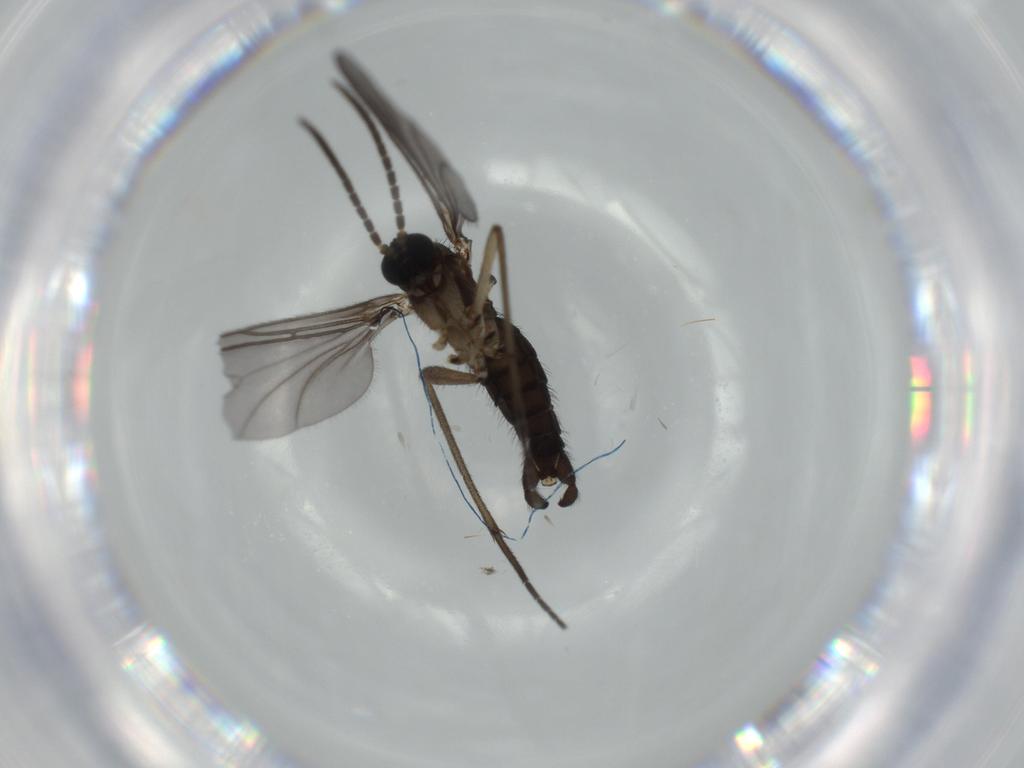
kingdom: Animalia
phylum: Arthropoda
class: Insecta
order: Diptera
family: Sciaridae
